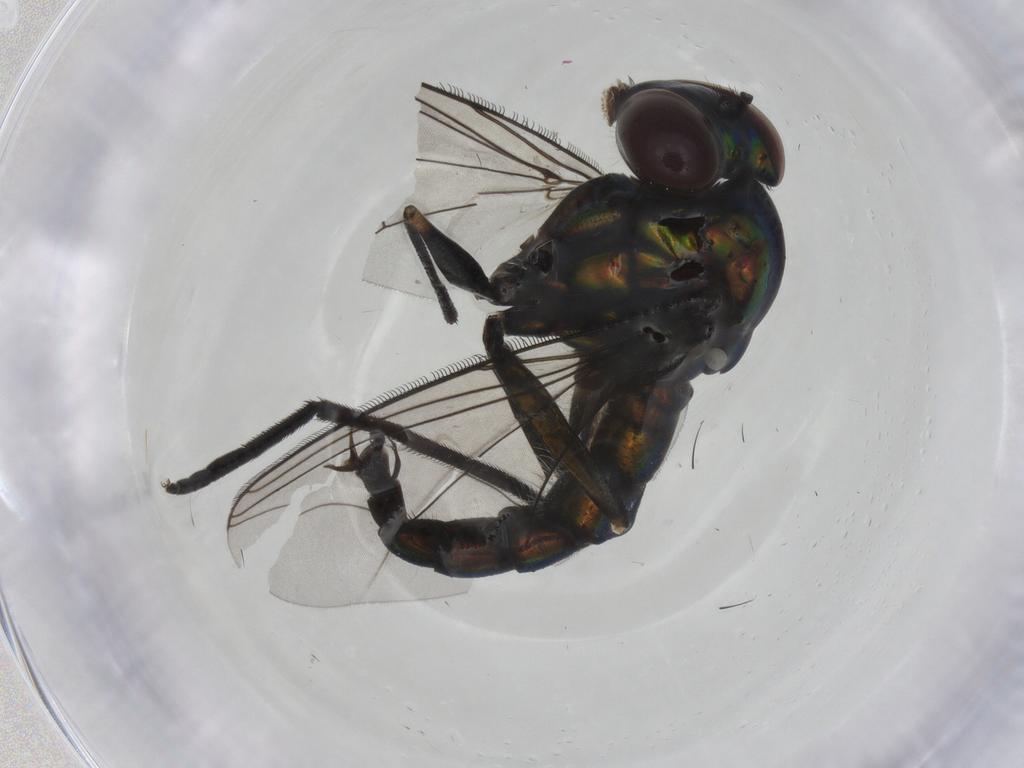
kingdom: Animalia
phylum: Arthropoda
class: Insecta
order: Diptera
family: Dolichopodidae
